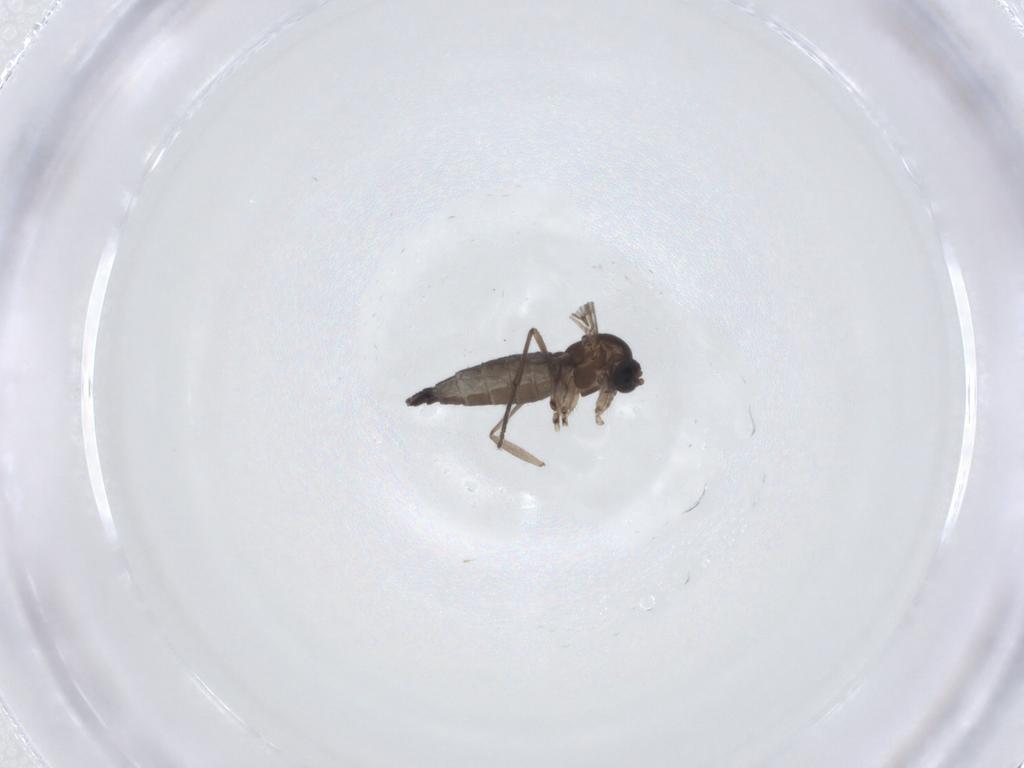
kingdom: Animalia
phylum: Arthropoda
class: Insecta
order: Diptera
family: Sciaridae
